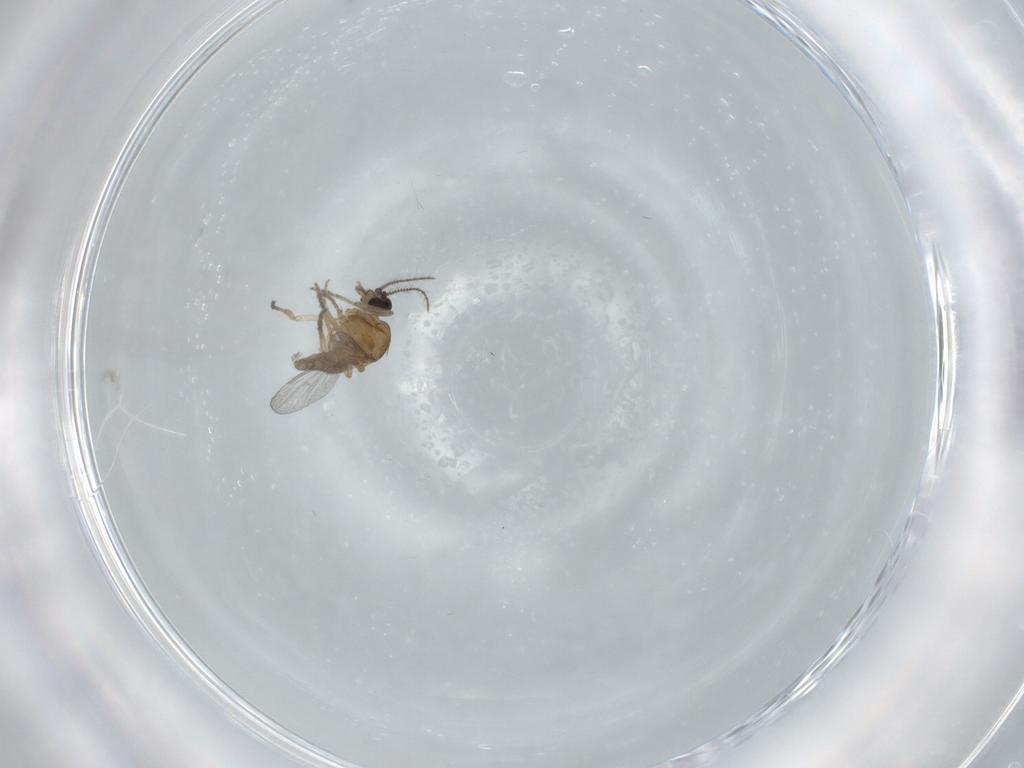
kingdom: Animalia
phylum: Arthropoda
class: Insecta
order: Diptera
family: Ceratopogonidae
